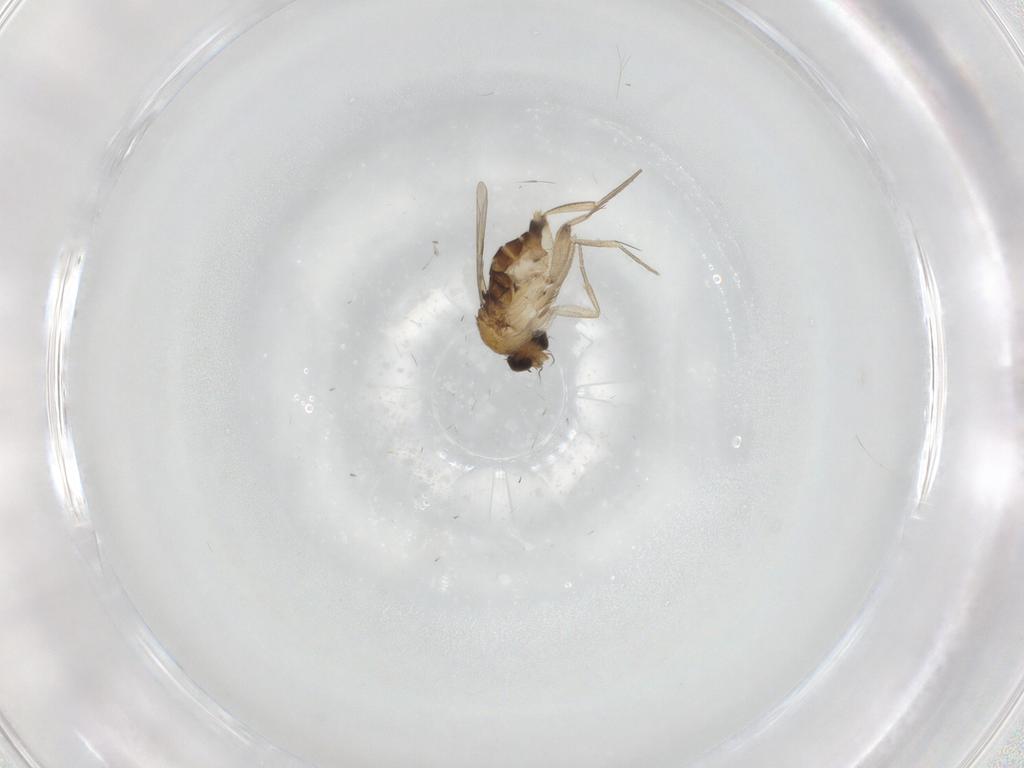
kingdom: Animalia
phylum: Arthropoda
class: Insecta
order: Diptera
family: Phoridae
